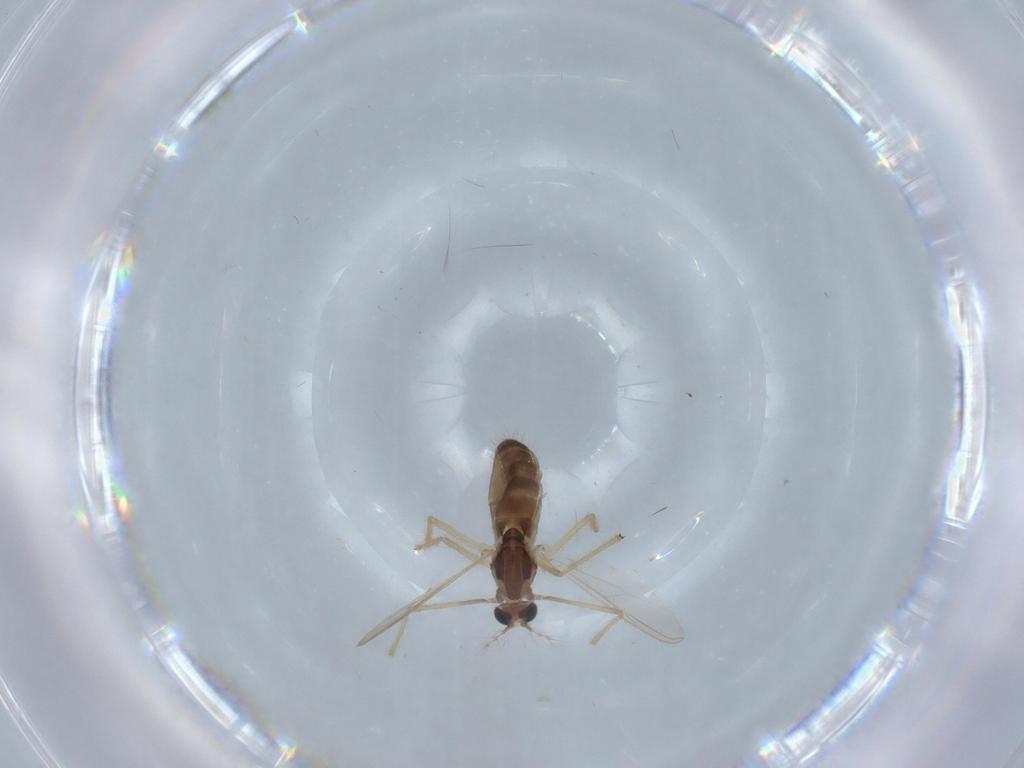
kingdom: Animalia
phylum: Arthropoda
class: Insecta
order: Diptera
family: Chironomidae
